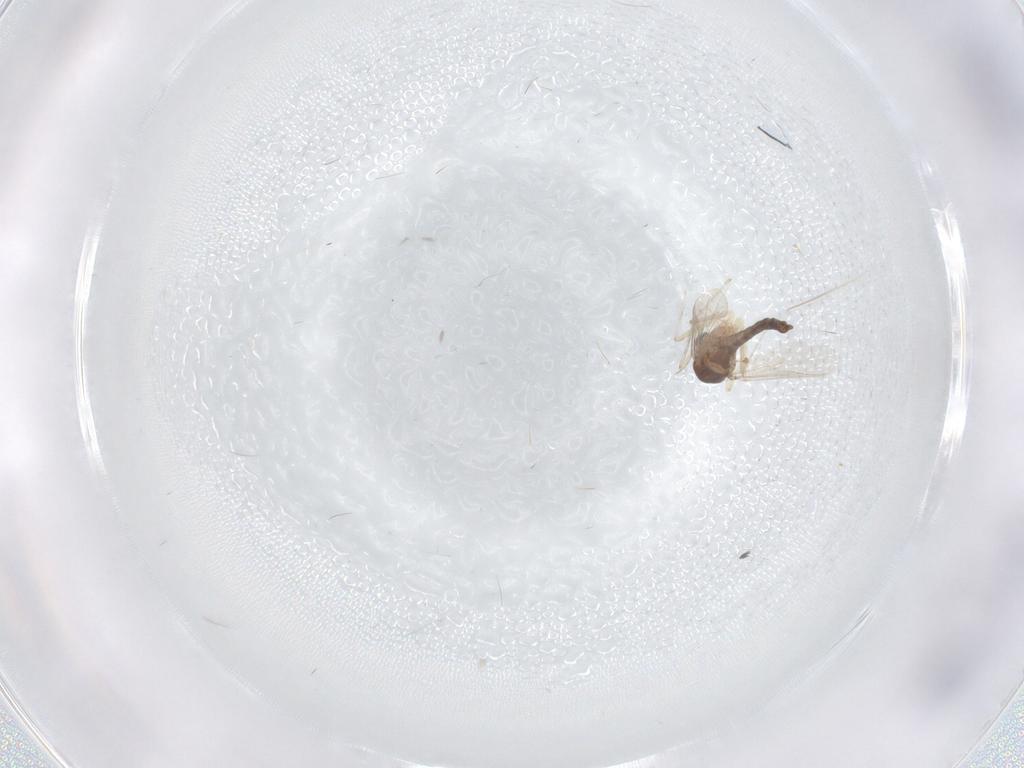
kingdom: Animalia
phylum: Arthropoda
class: Insecta
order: Diptera
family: Chironomidae
